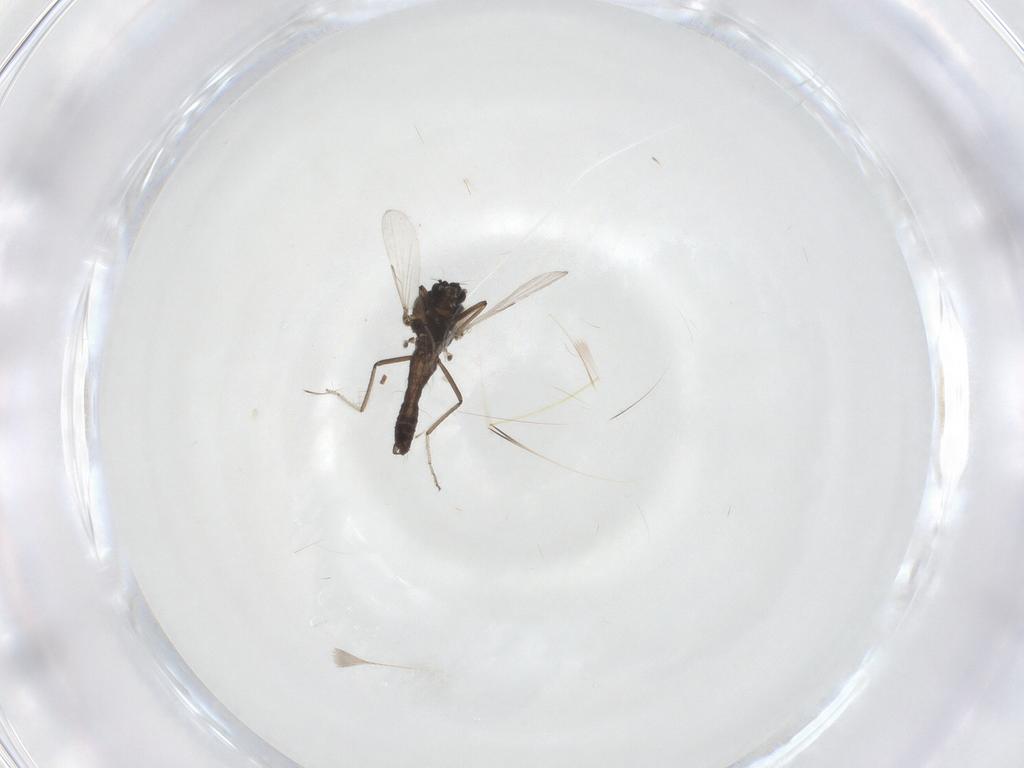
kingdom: Animalia
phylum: Arthropoda
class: Insecta
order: Diptera
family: Ceratopogonidae
